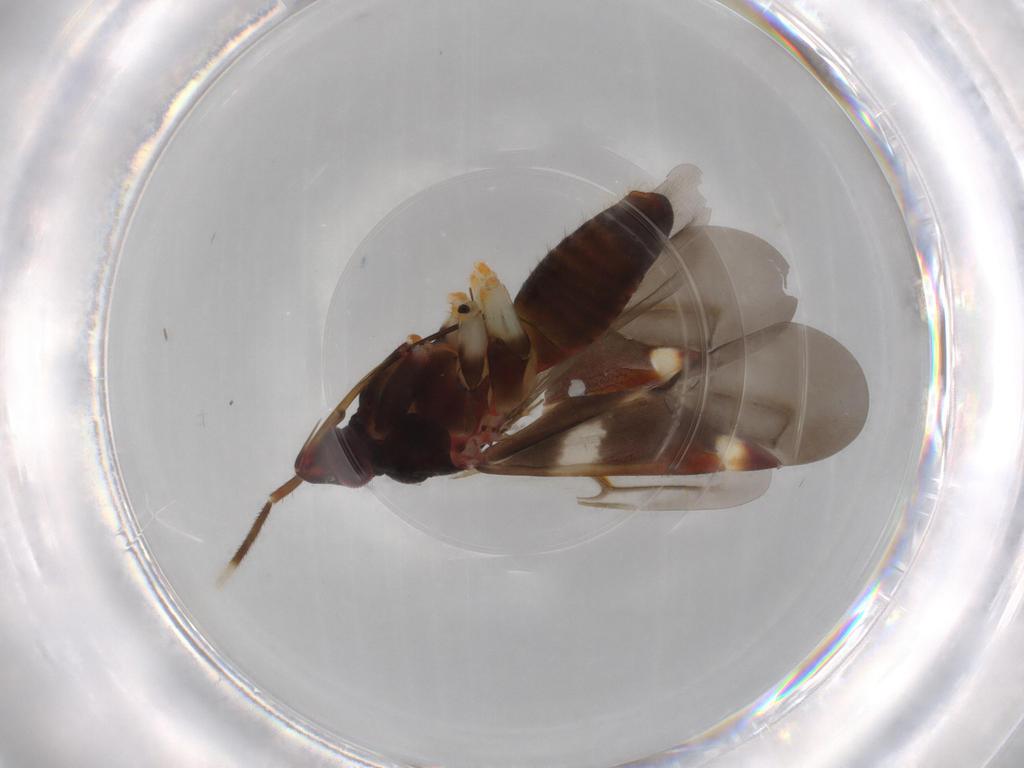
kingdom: Animalia
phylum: Arthropoda
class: Insecta
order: Hemiptera
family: Miridae
